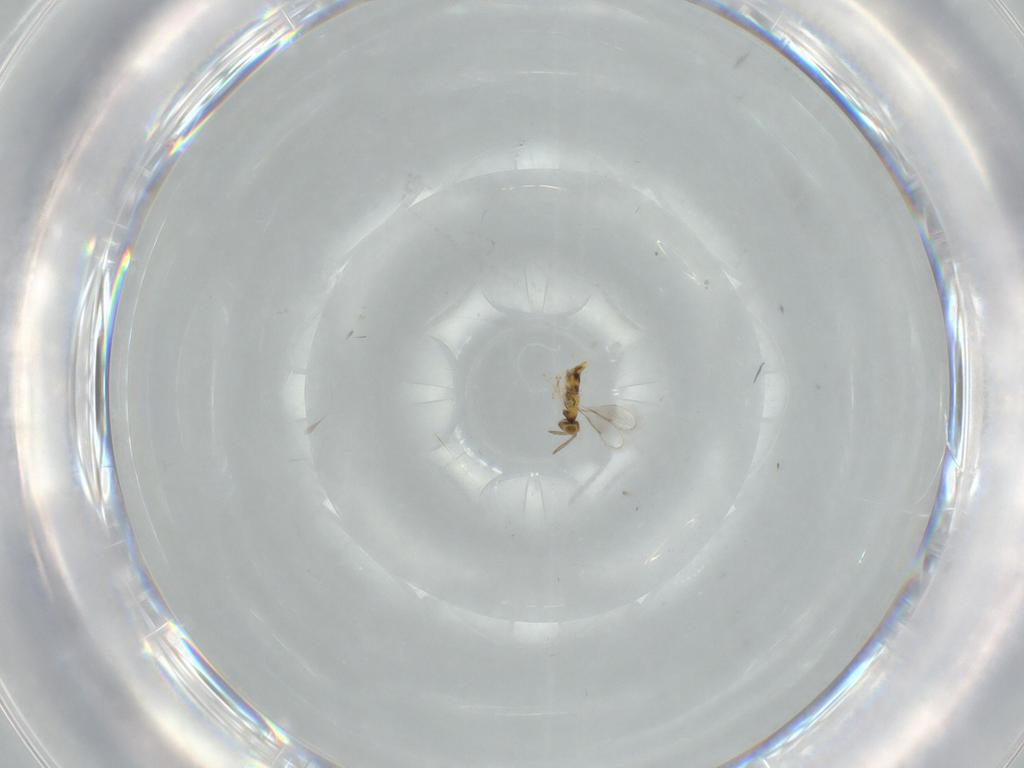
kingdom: Animalia
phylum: Arthropoda
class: Insecta
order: Hymenoptera
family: Aphelinidae
